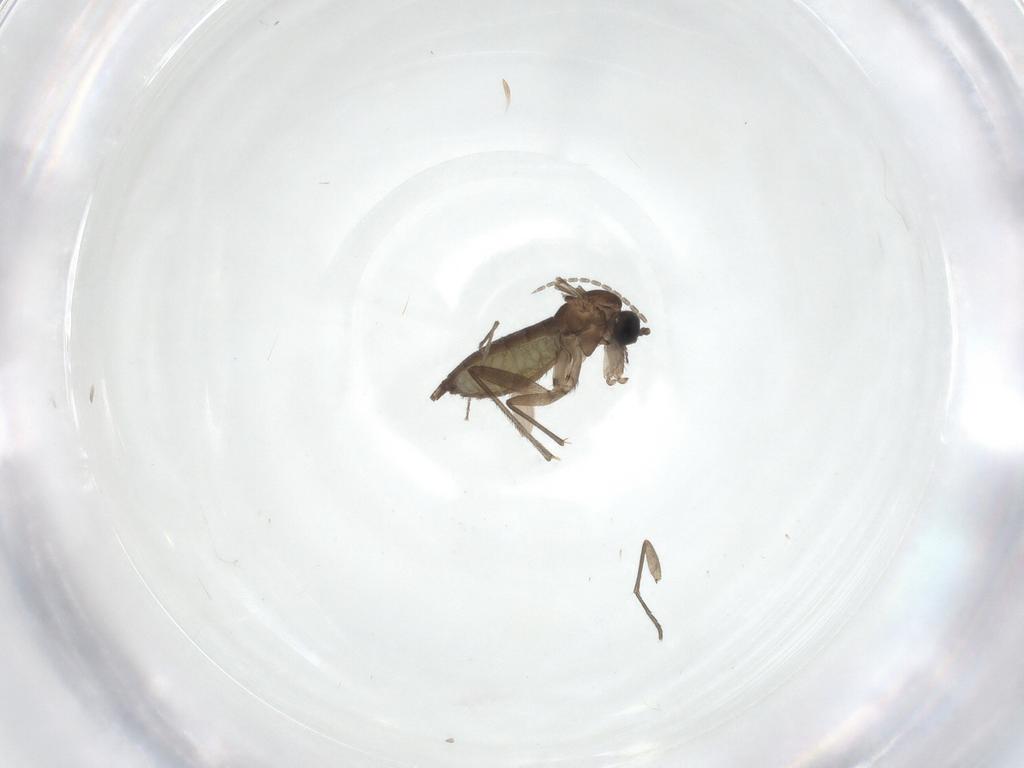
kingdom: Animalia
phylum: Arthropoda
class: Insecta
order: Diptera
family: Mycetophilidae
